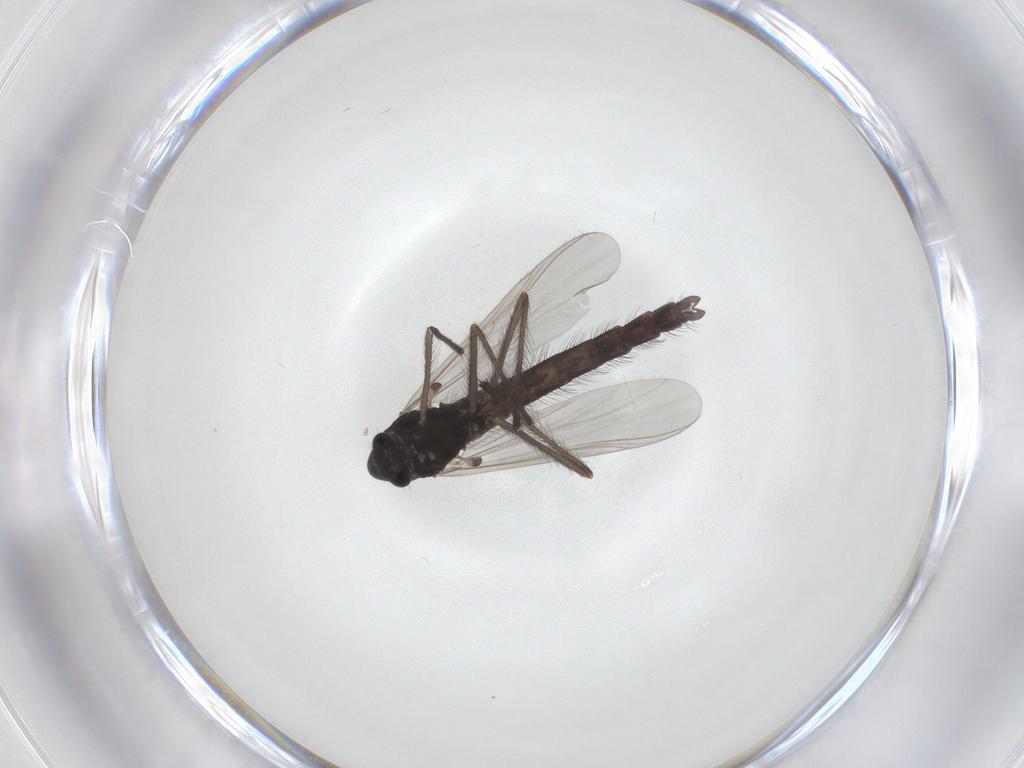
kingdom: Animalia
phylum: Arthropoda
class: Insecta
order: Diptera
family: Chironomidae
